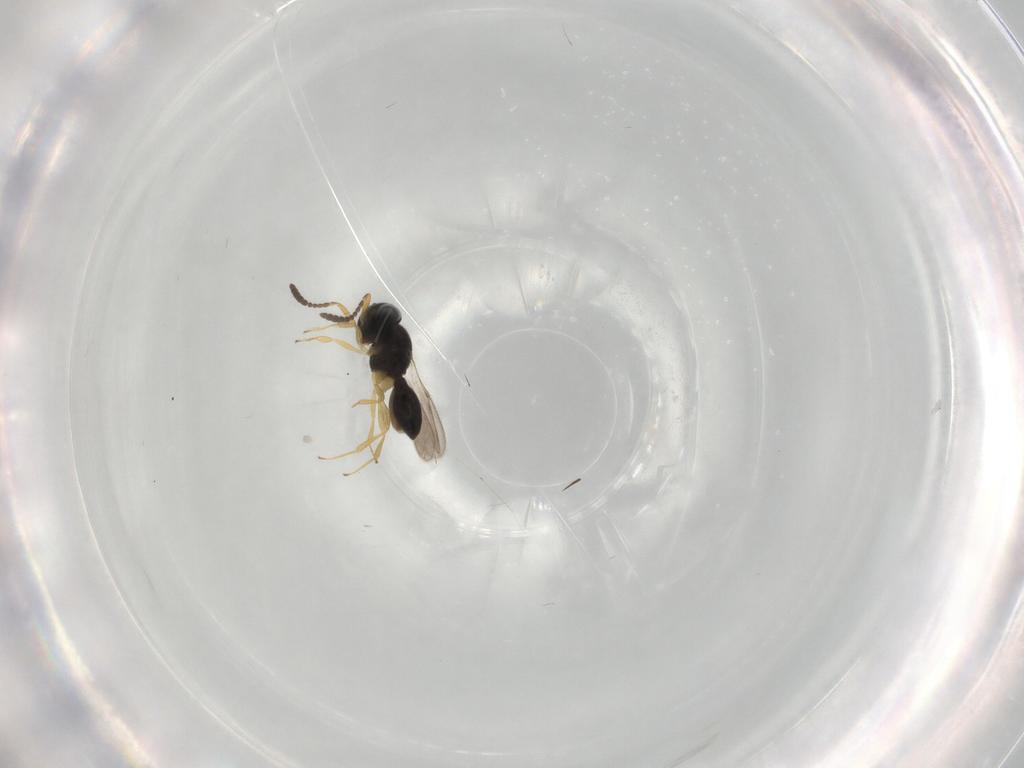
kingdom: Animalia
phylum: Arthropoda
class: Insecta
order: Hymenoptera
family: Scelionidae
